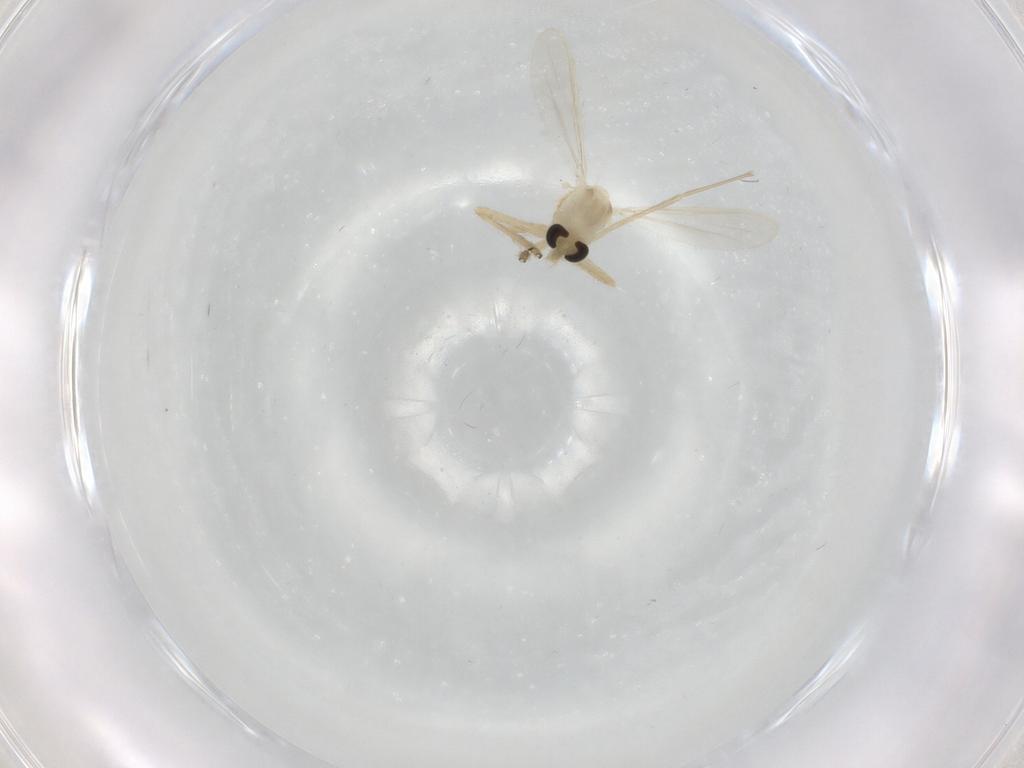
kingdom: Animalia
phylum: Arthropoda
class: Insecta
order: Diptera
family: Chironomidae
